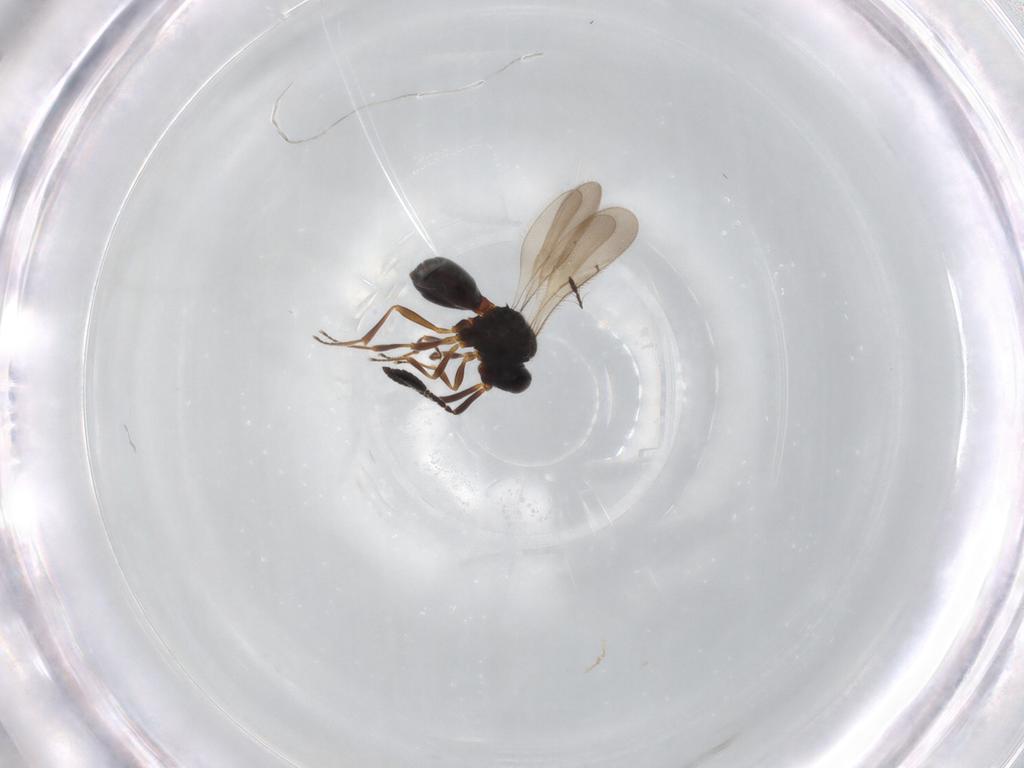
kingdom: Animalia
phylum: Arthropoda
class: Insecta
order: Hymenoptera
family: Scelionidae
